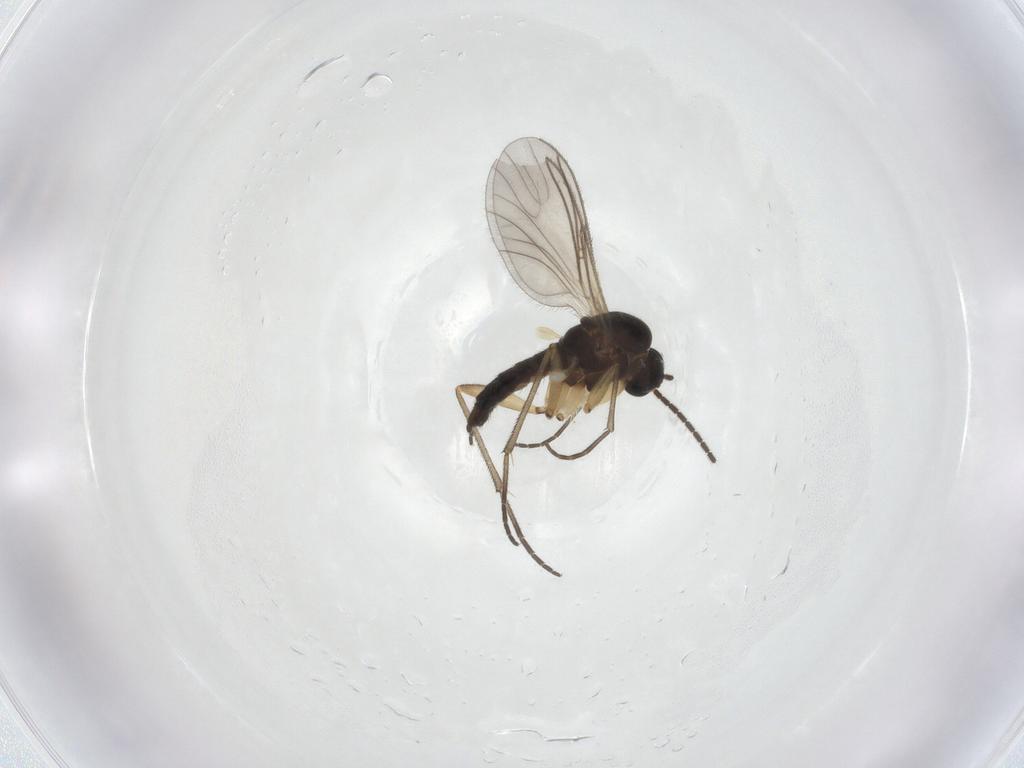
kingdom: Animalia
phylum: Arthropoda
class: Insecta
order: Diptera
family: Sciaridae
